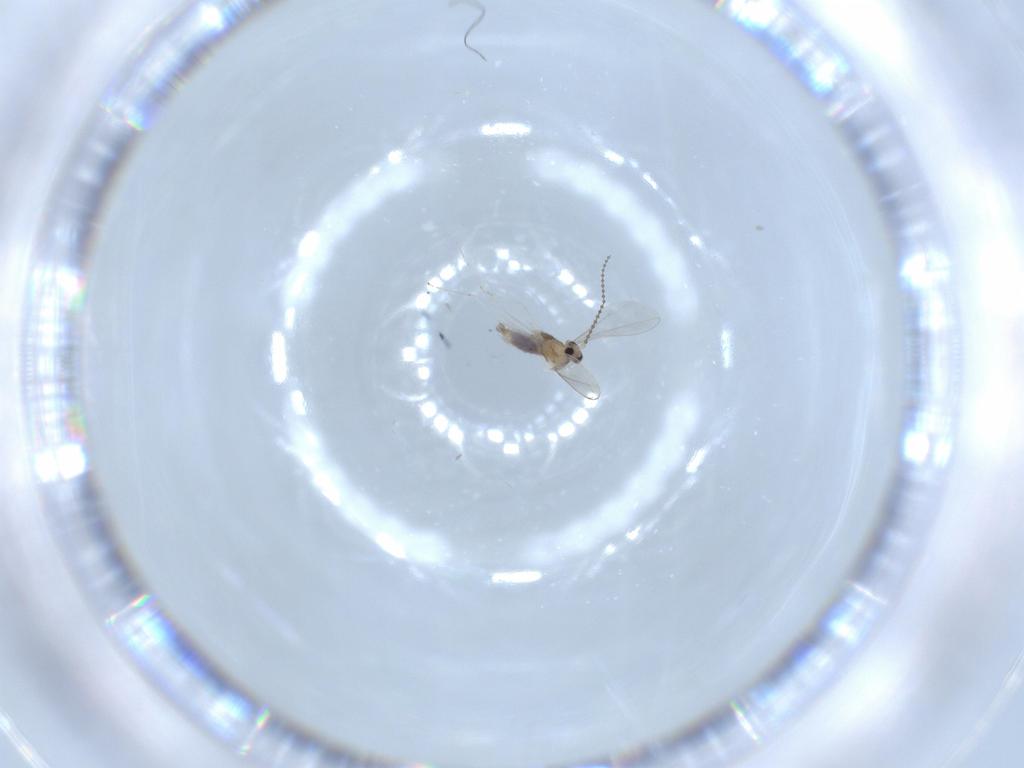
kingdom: Animalia
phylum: Arthropoda
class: Insecta
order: Diptera
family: Cecidomyiidae
